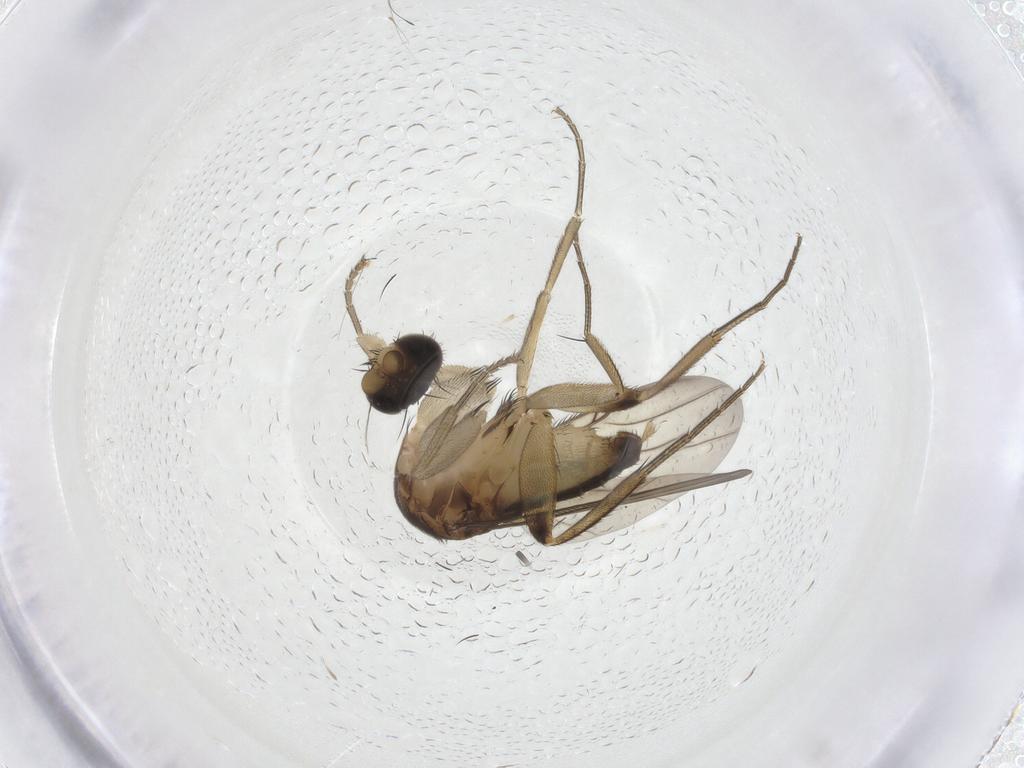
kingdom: Animalia
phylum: Arthropoda
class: Insecta
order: Diptera
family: Phoridae
